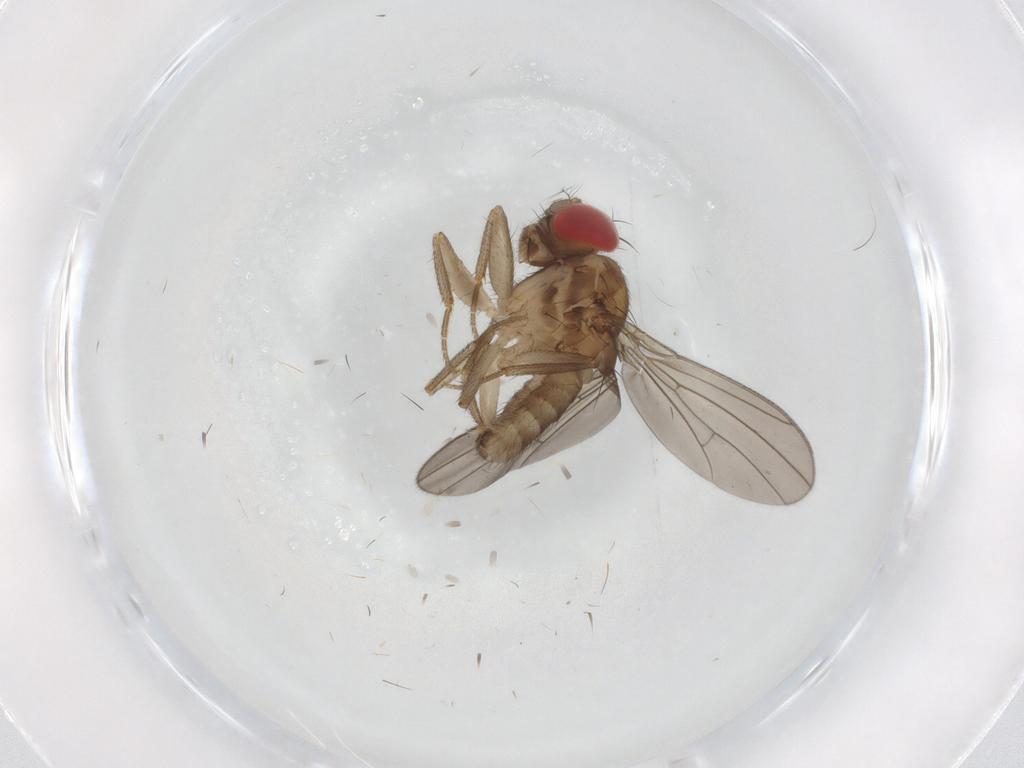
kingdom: Animalia
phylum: Arthropoda
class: Insecta
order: Diptera
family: Drosophilidae
